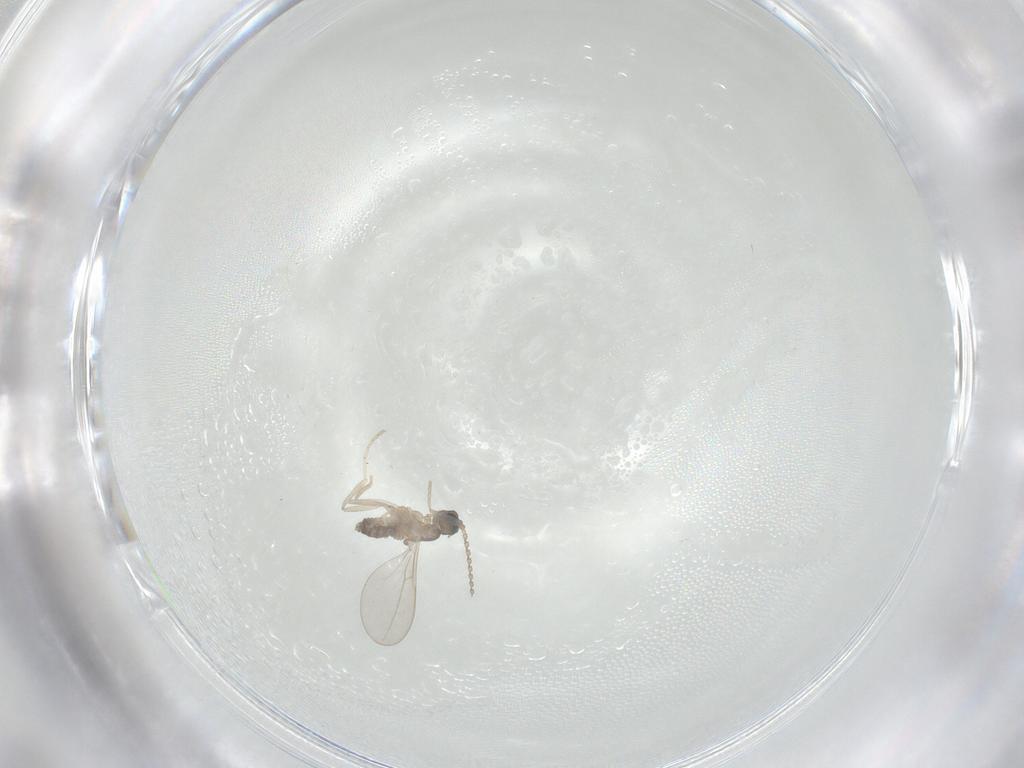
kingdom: Animalia
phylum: Arthropoda
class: Insecta
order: Diptera
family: Cecidomyiidae
